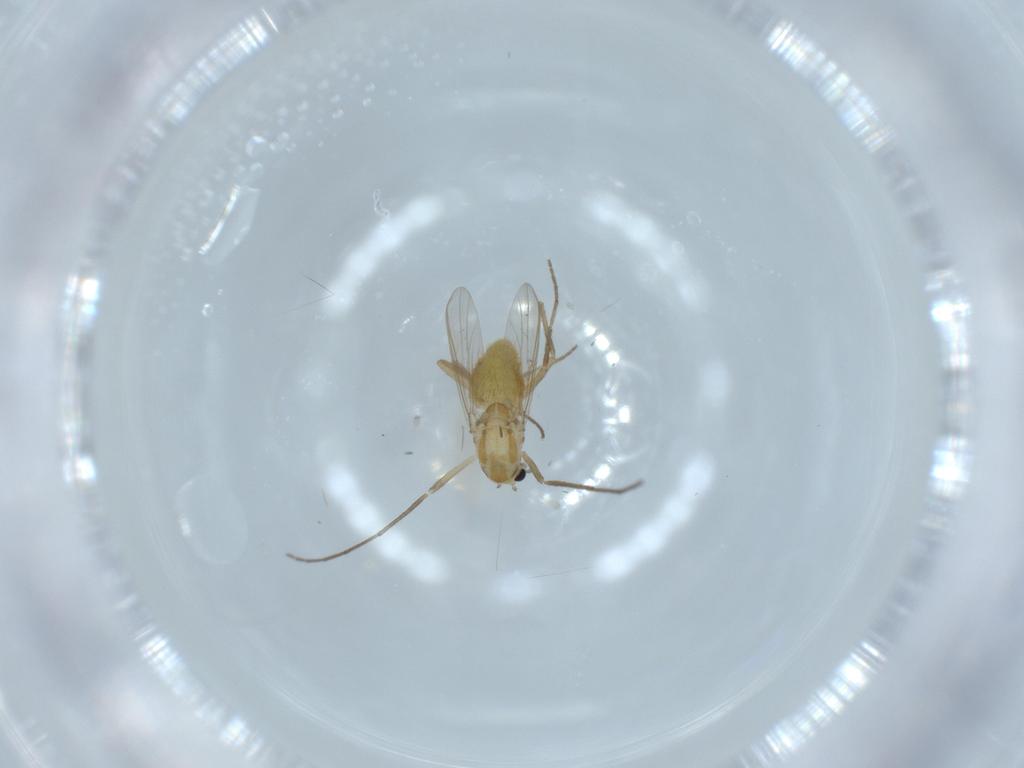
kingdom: Animalia
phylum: Arthropoda
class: Insecta
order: Diptera
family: Chironomidae
